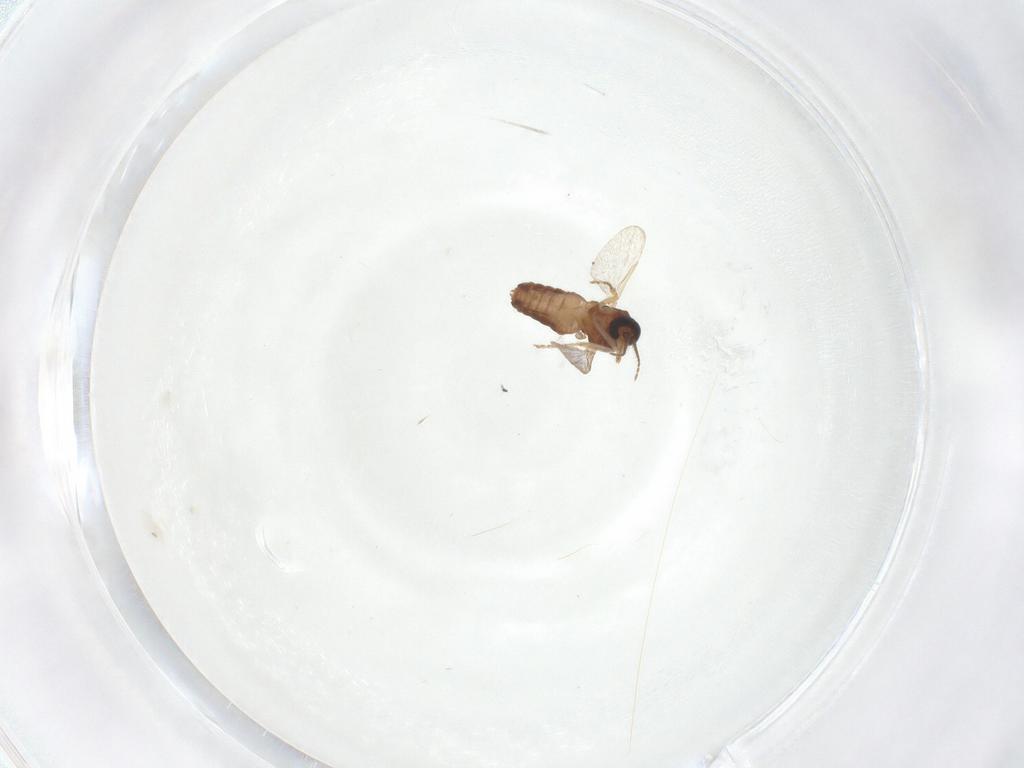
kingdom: Animalia
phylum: Arthropoda
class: Insecta
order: Diptera
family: Ceratopogonidae
